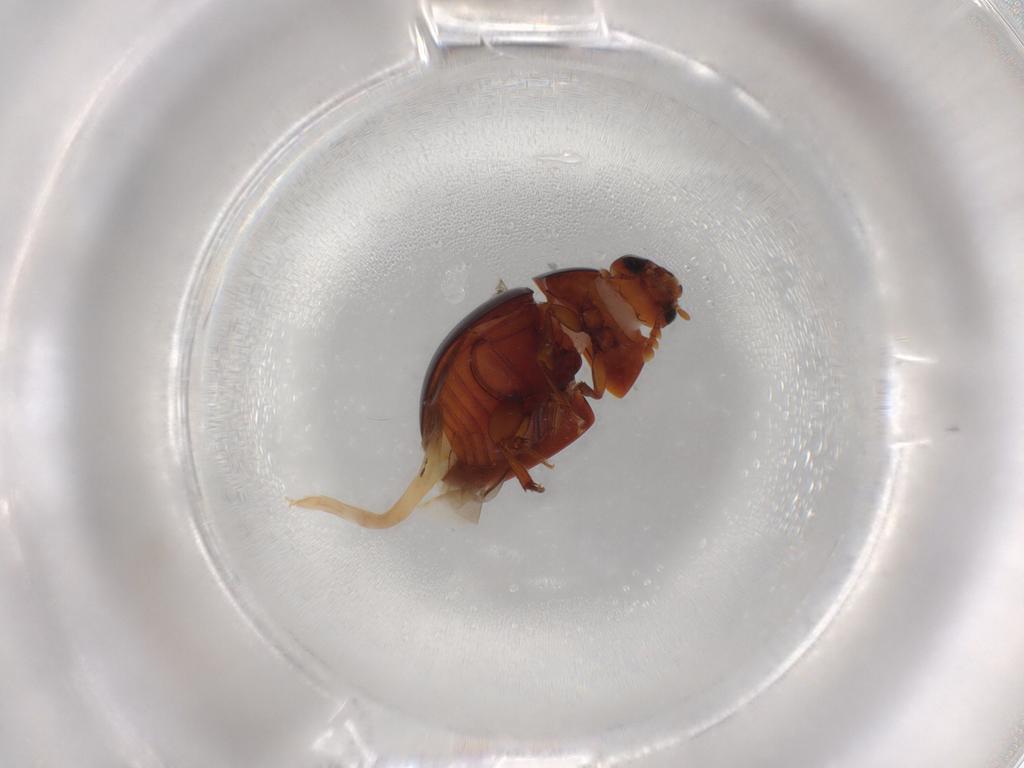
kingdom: Animalia
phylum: Arthropoda
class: Insecta
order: Coleoptera
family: Phalacridae
